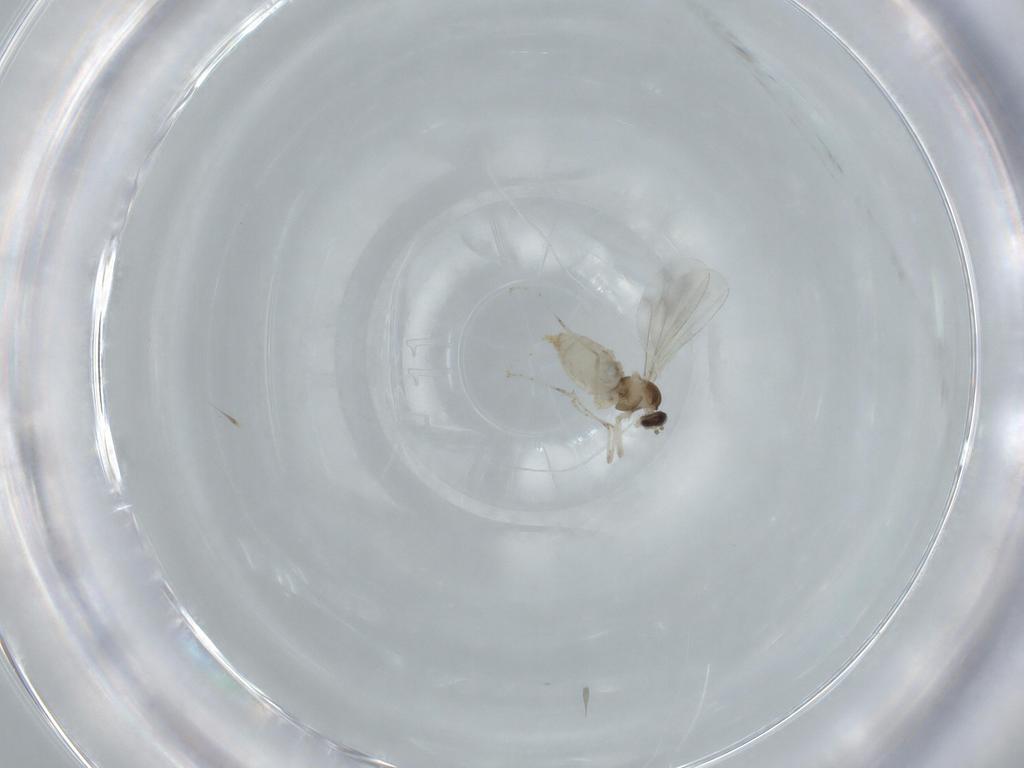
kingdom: Animalia
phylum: Arthropoda
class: Insecta
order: Diptera
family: Cecidomyiidae
